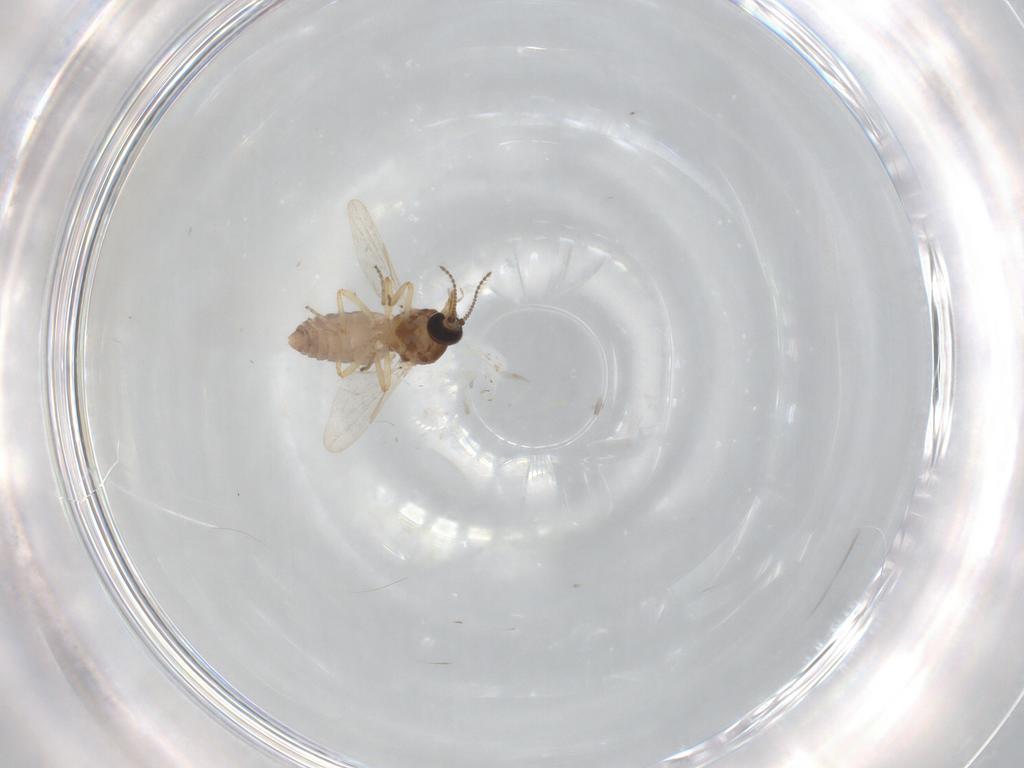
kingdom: Animalia
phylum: Arthropoda
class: Insecta
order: Diptera
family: Ceratopogonidae
